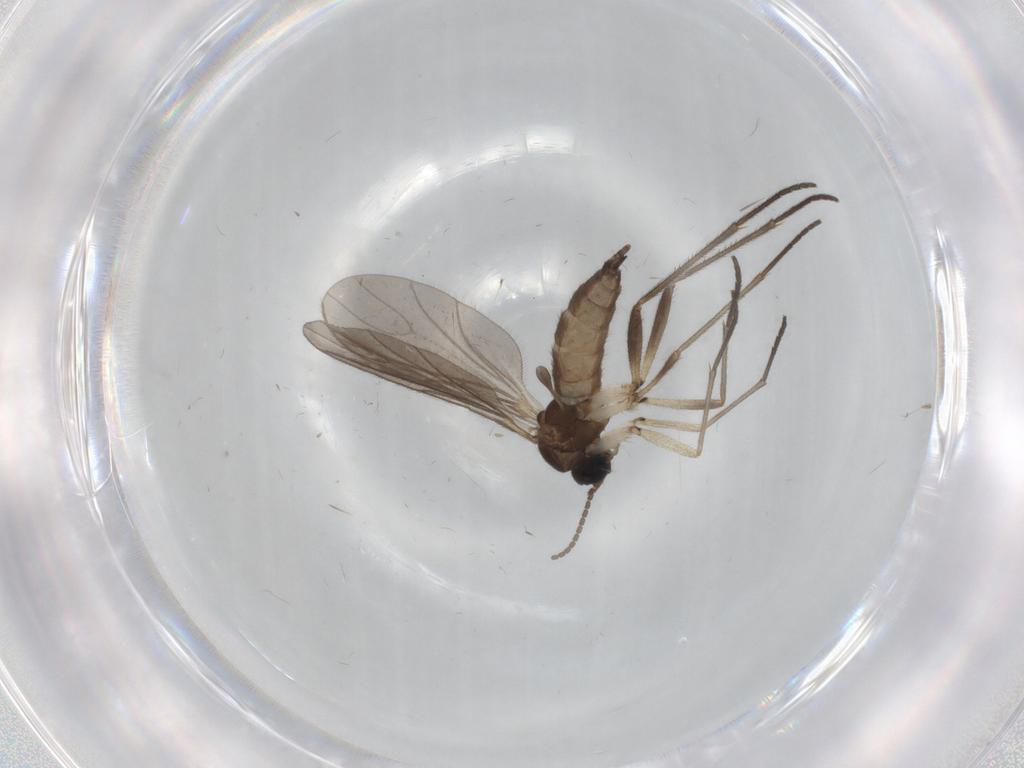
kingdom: Animalia
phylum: Arthropoda
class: Insecta
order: Diptera
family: Sciaridae
